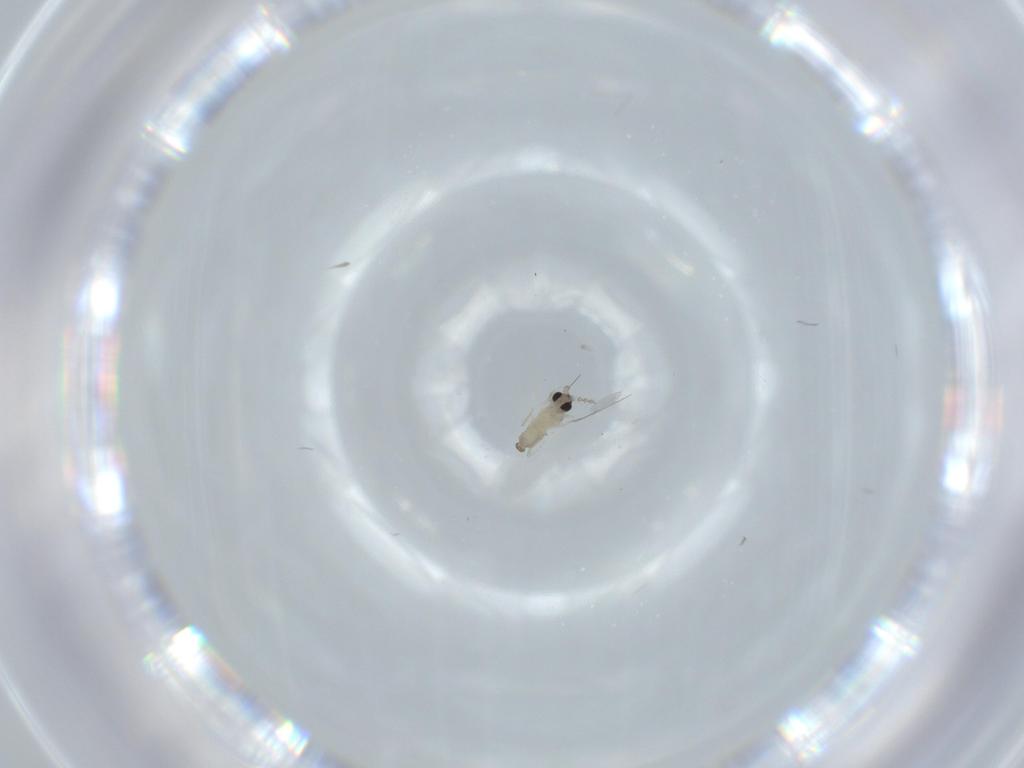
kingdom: Animalia
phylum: Arthropoda
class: Insecta
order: Diptera
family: Cecidomyiidae
